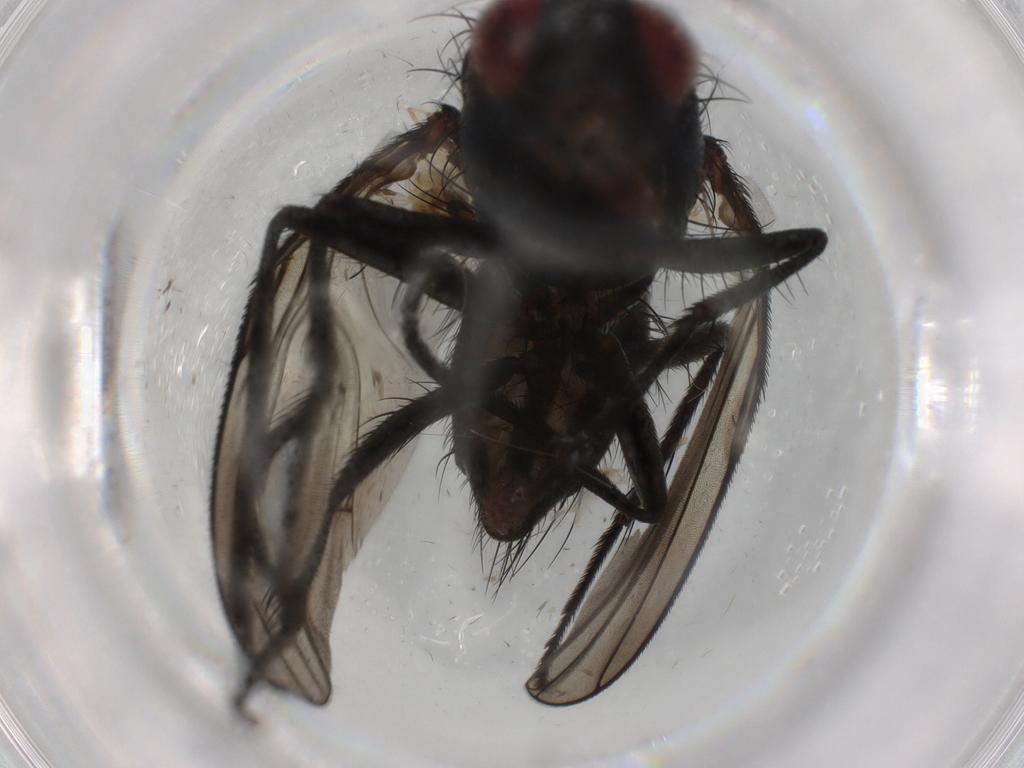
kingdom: Animalia
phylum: Arthropoda
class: Insecta
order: Diptera
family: Anthomyiidae
